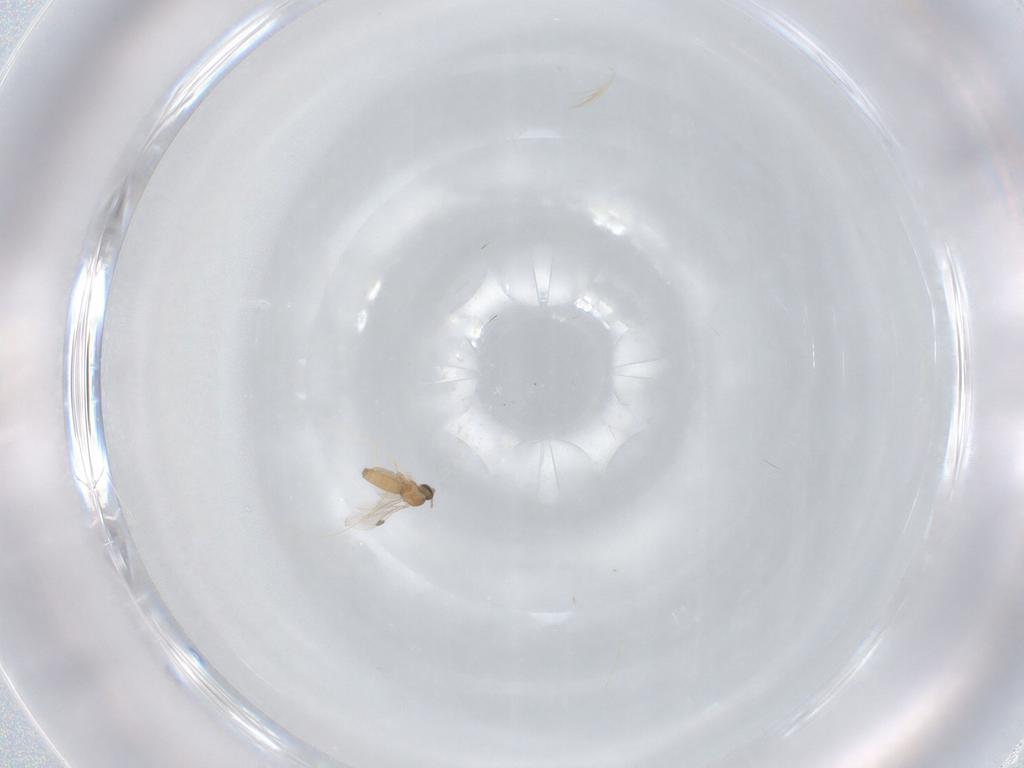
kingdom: Animalia
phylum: Arthropoda
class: Insecta
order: Diptera
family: Cecidomyiidae
